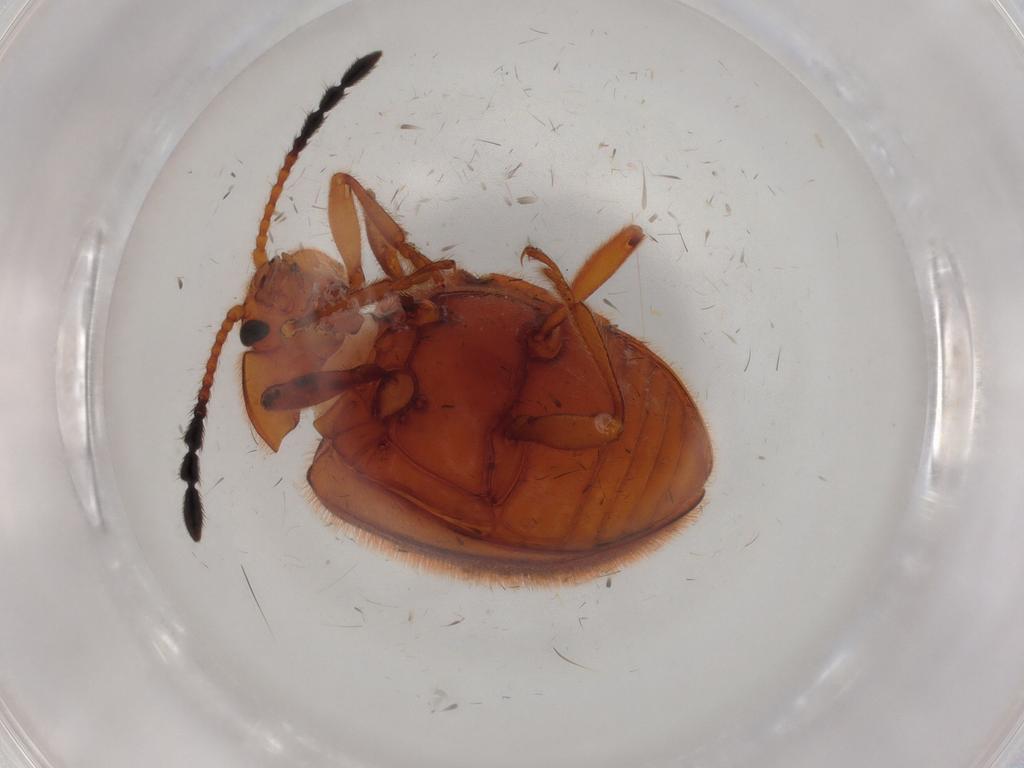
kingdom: Animalia
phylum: Arthropoda
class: Insecta
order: Coleoptera
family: Endomychidae
